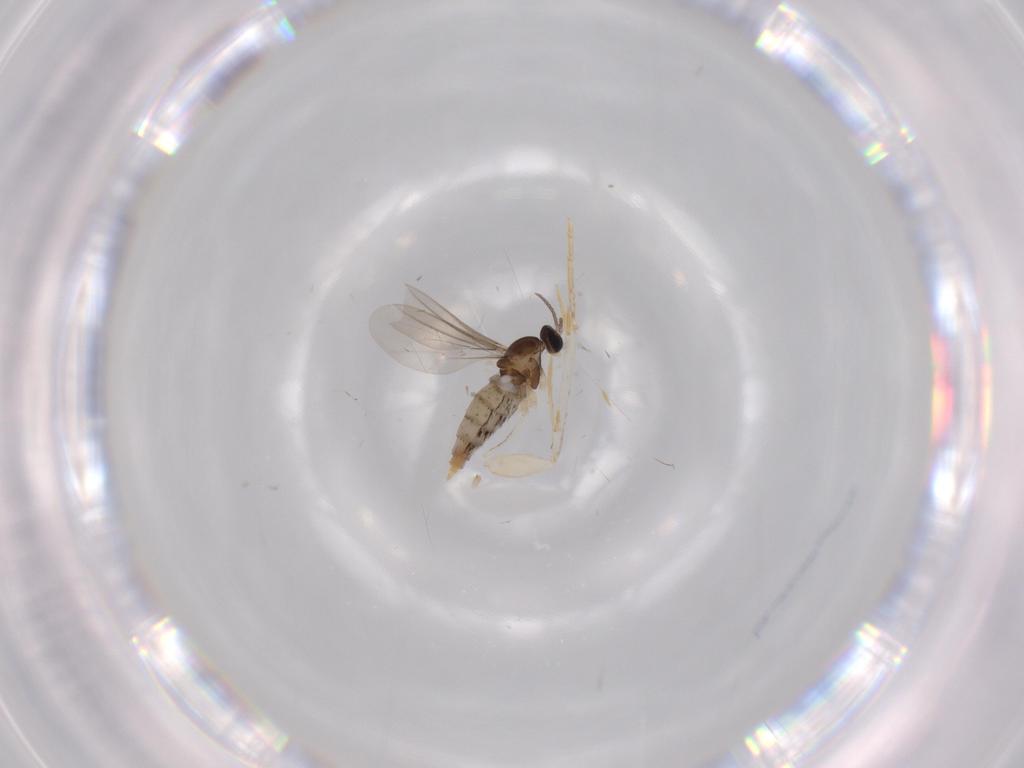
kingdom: Animalia
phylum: Arthropoda
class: Insecta
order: Diptera
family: Cecidomyiidae
